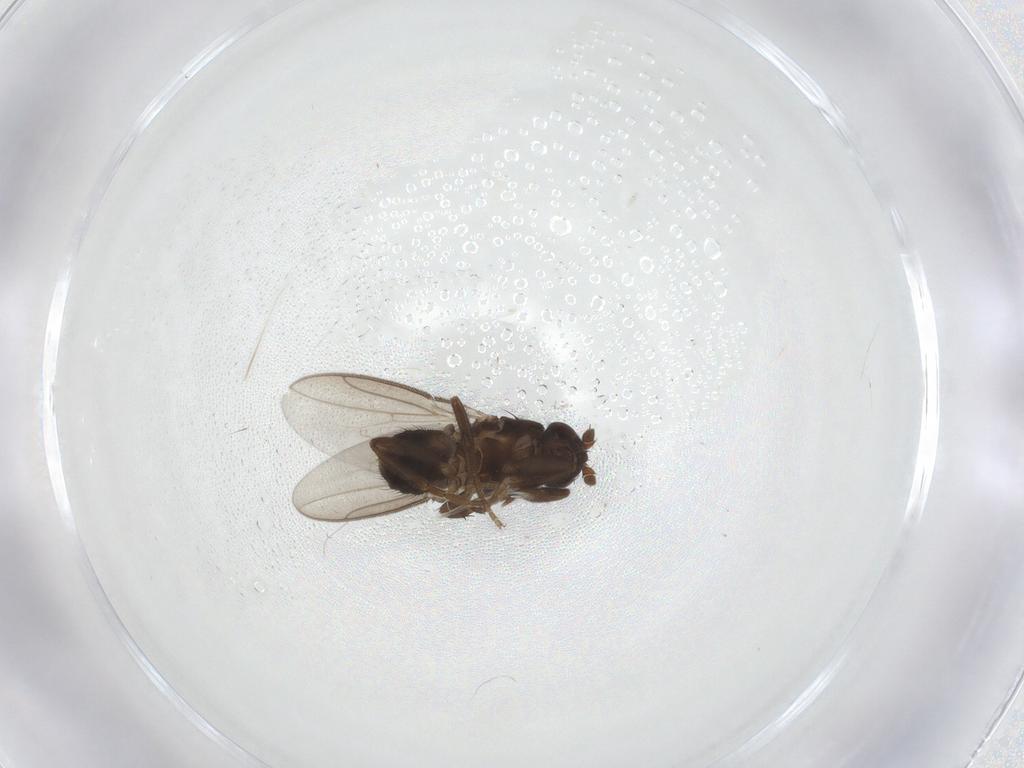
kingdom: Animalia
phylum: Arthropoda
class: Insecta
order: Diptera
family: Sphaeroceridae
